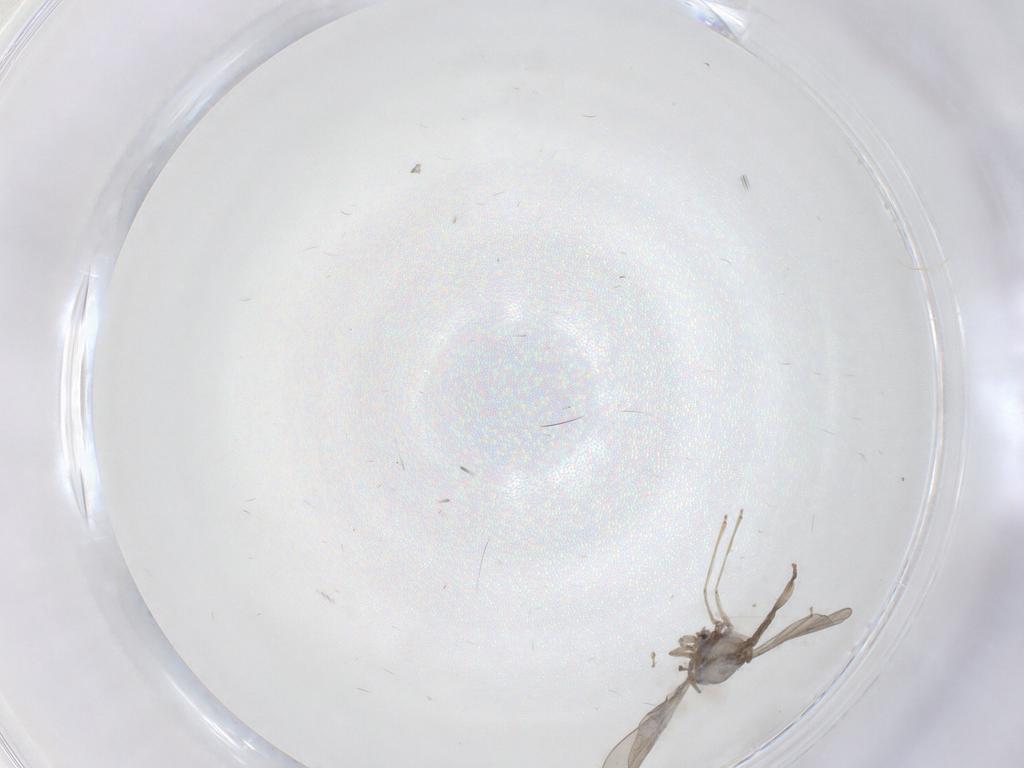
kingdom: Animalia
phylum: Arthropoda
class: Insecta
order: Diptera
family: Cecidomyiidae
